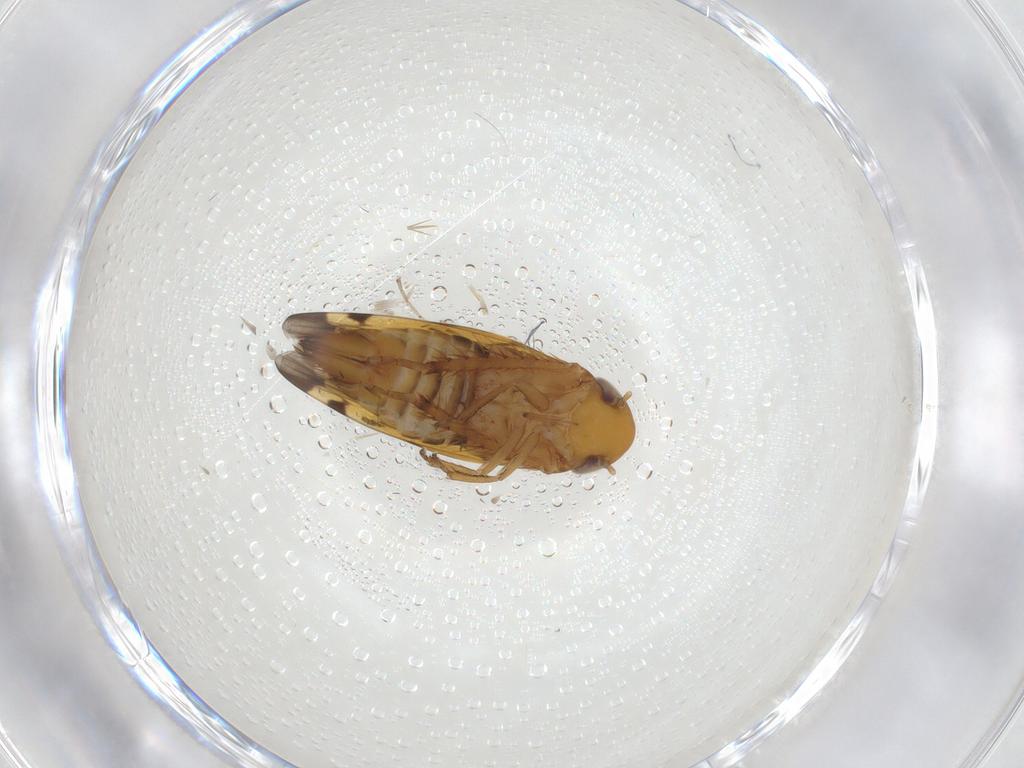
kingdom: Animalia
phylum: Arthropoda
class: Insecta
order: Hemiptera
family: Cicadellidae
